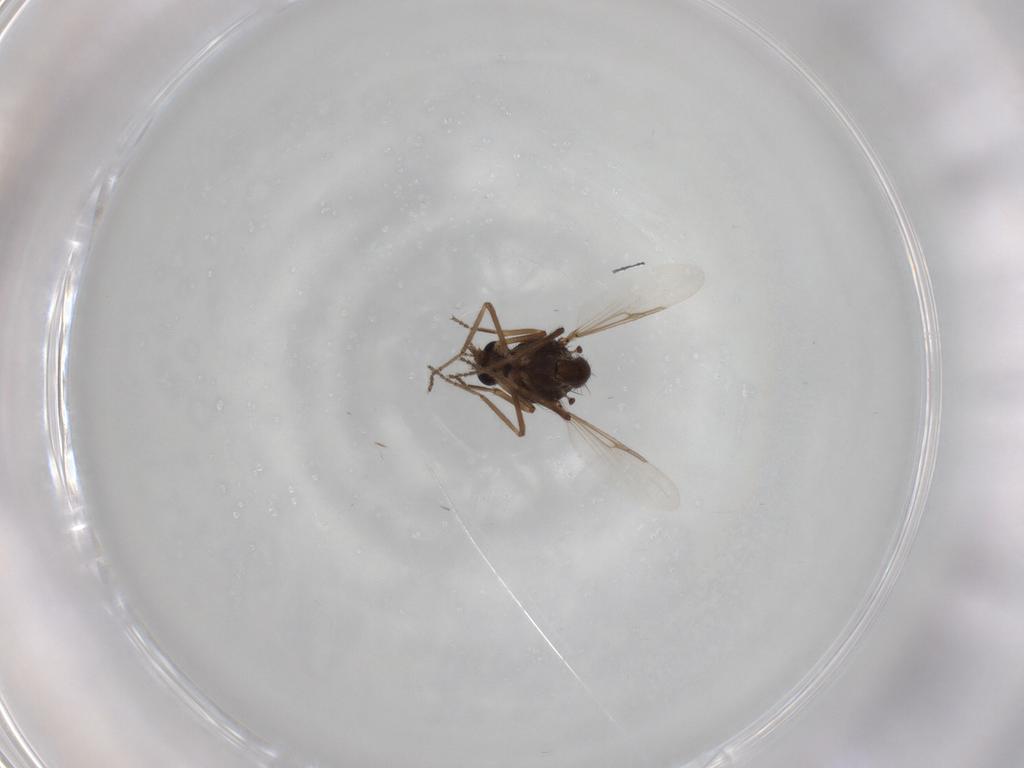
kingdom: Animalia
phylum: Arthropoda
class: Insecta
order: Diptera
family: Ceratopogonidae
